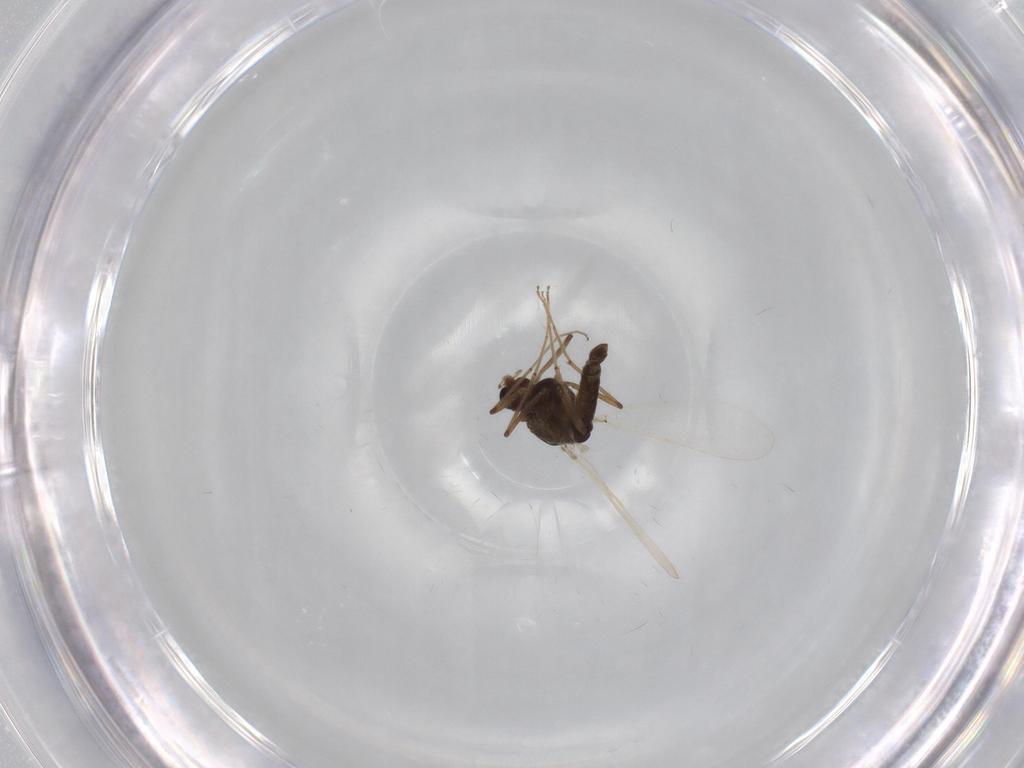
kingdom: Animalia
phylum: Arthropoda
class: Insecta
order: Diptera
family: Chironomidae
